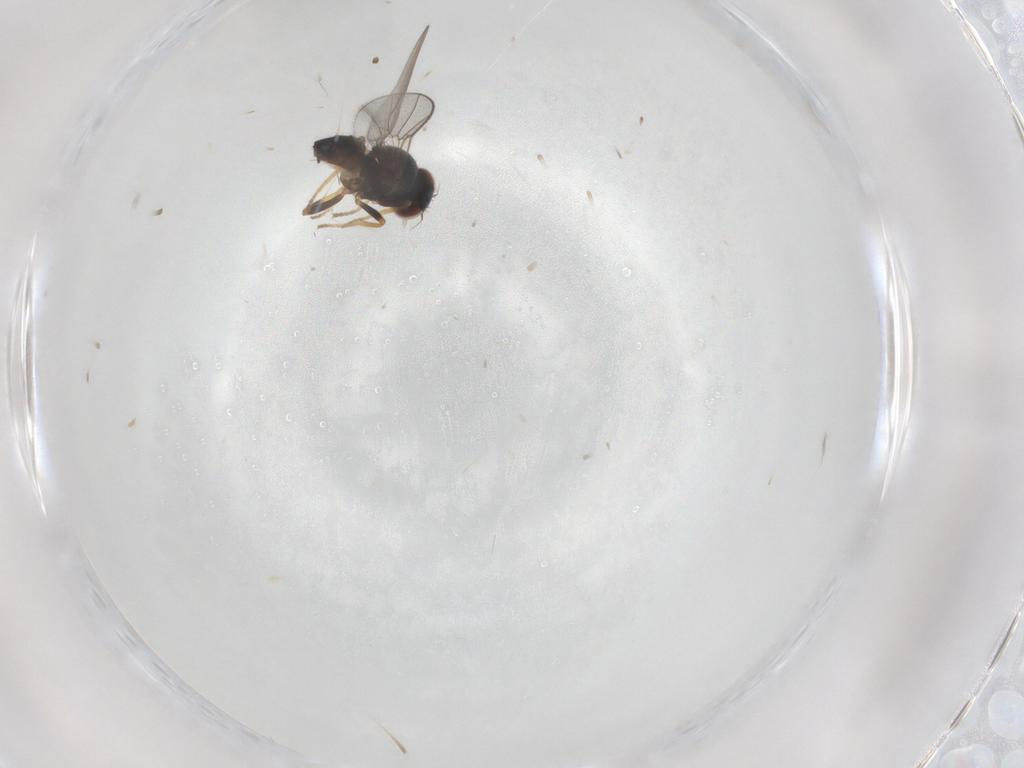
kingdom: Animalia
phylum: Arthropoda
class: Insecta
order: Diptera
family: Chloropidae
